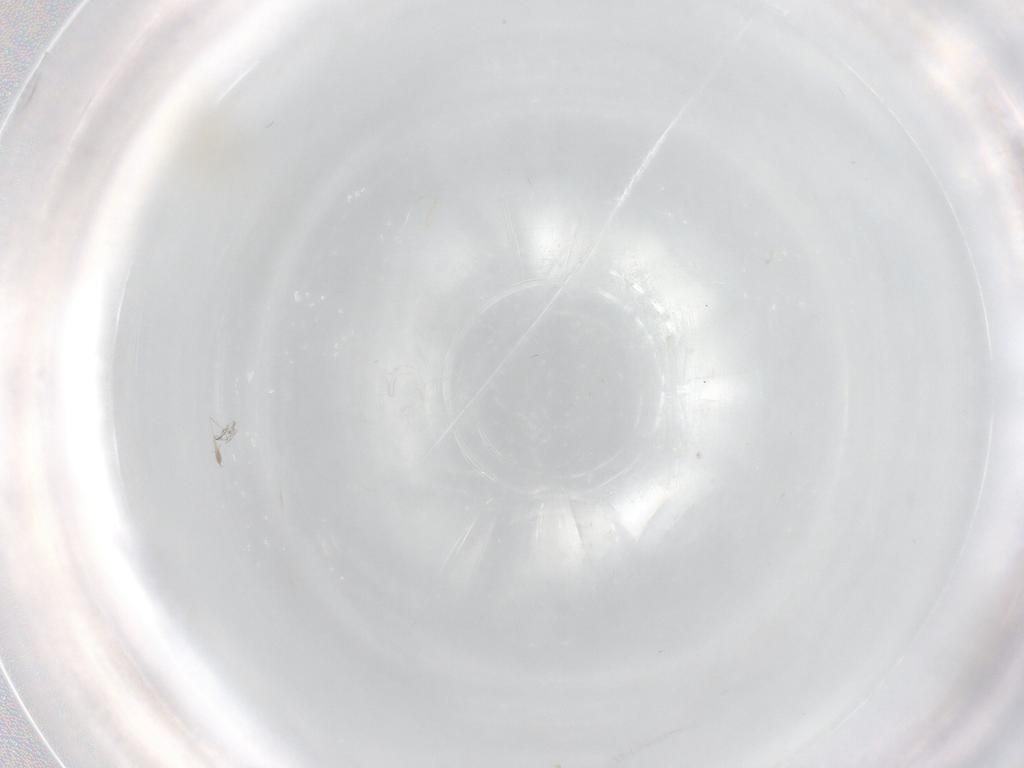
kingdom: Animalia
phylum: Arthropoda
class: Insecta
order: Diptera
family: Cecidomyiidae
